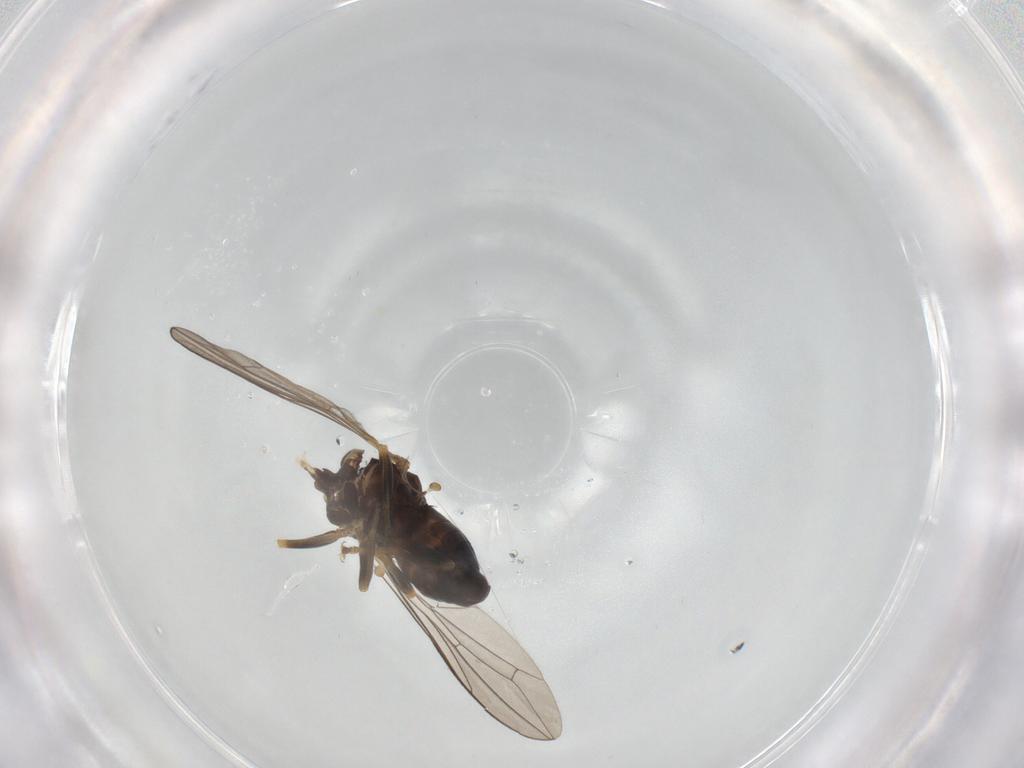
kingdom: Animalia
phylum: Arthropoda
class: Insecta
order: Diptera
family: Pipunculidae
